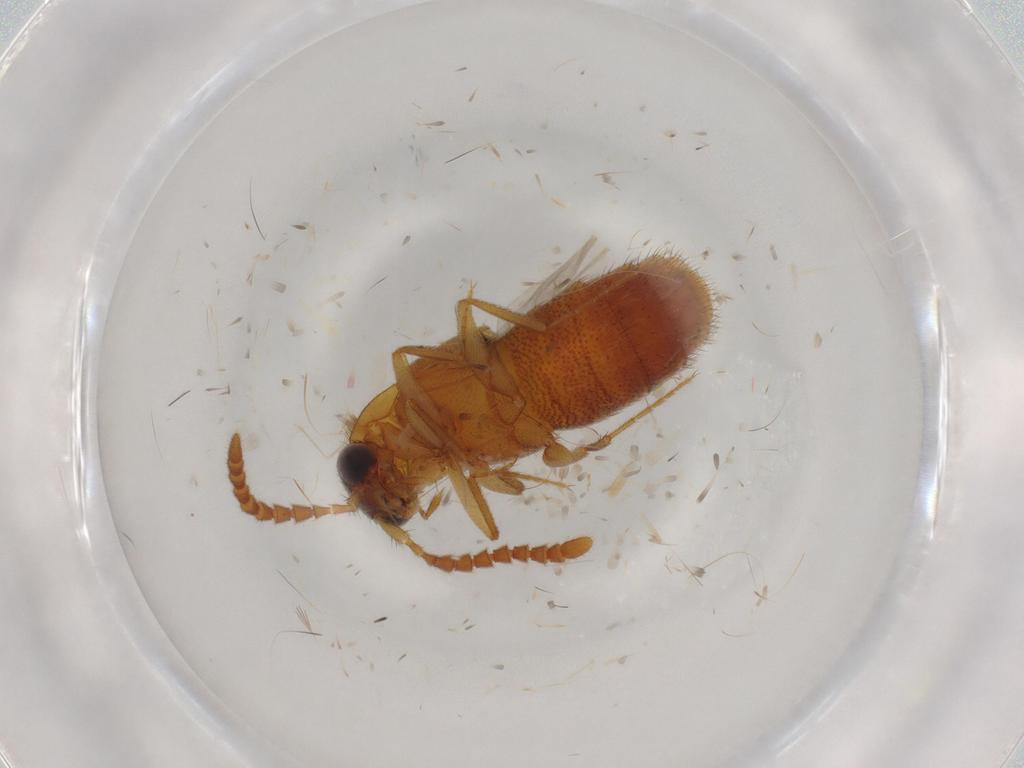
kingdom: Animalia
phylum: Arthropoda
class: Insecta
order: Coleoptera
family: Staphylinidae
